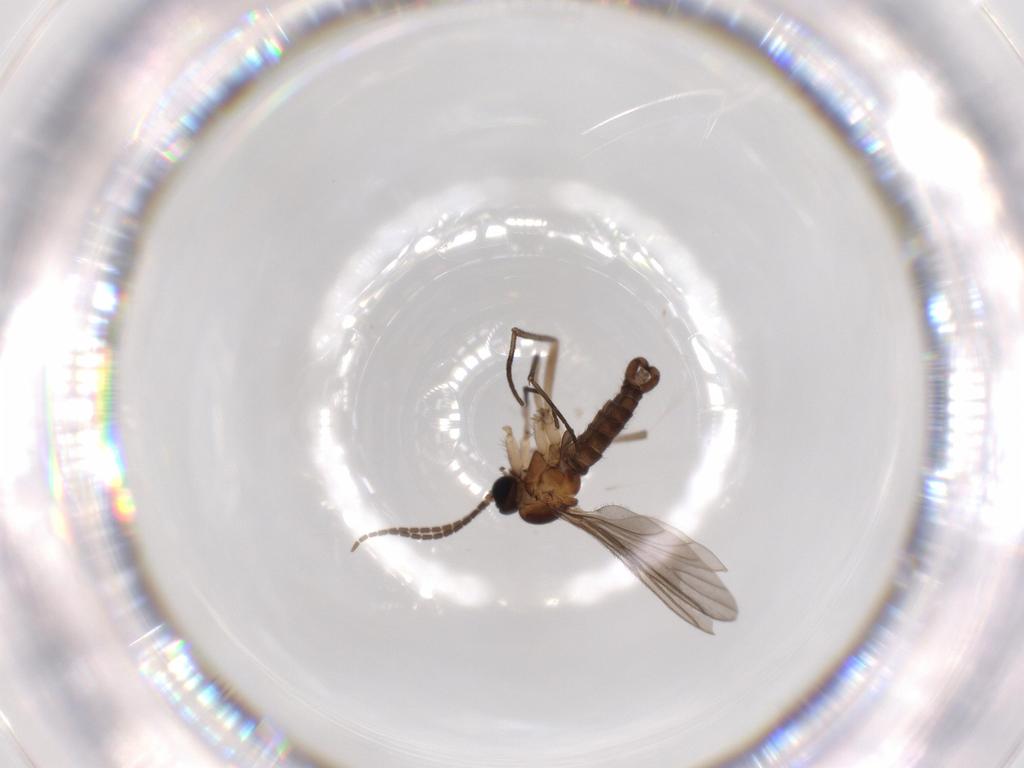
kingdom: Animalia
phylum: Arthropoda
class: Insecta
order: Diptera
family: Sciaridae
